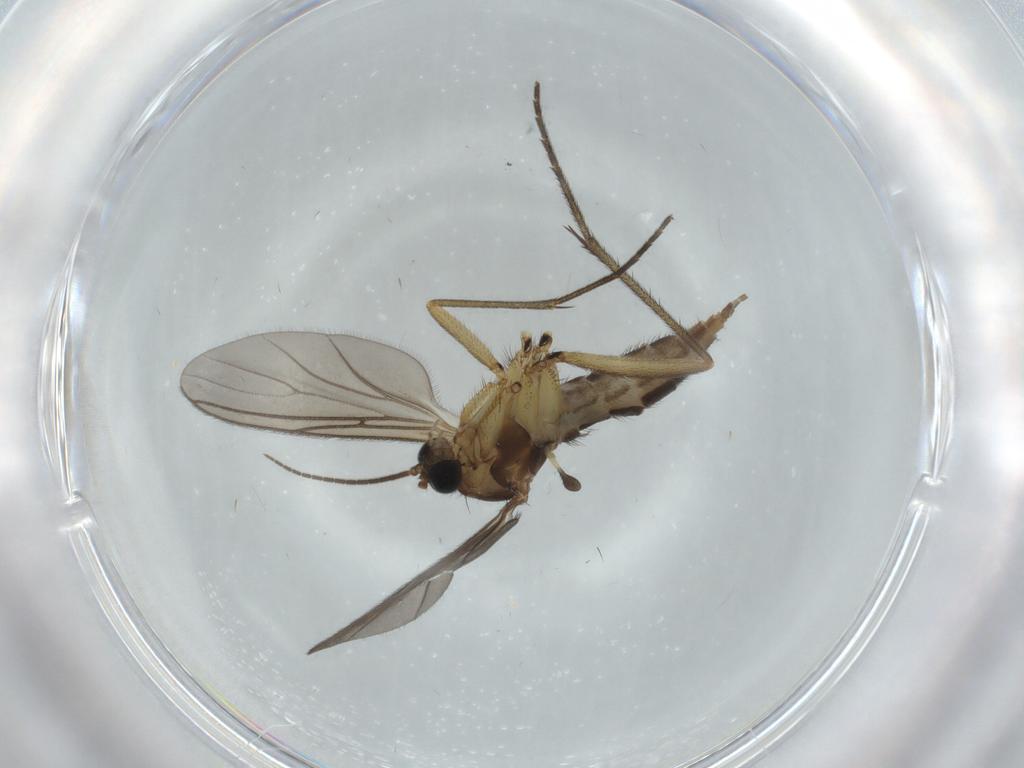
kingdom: Animalia
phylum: Arthropoda
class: Insecta
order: Diptera
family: Sciaridae
